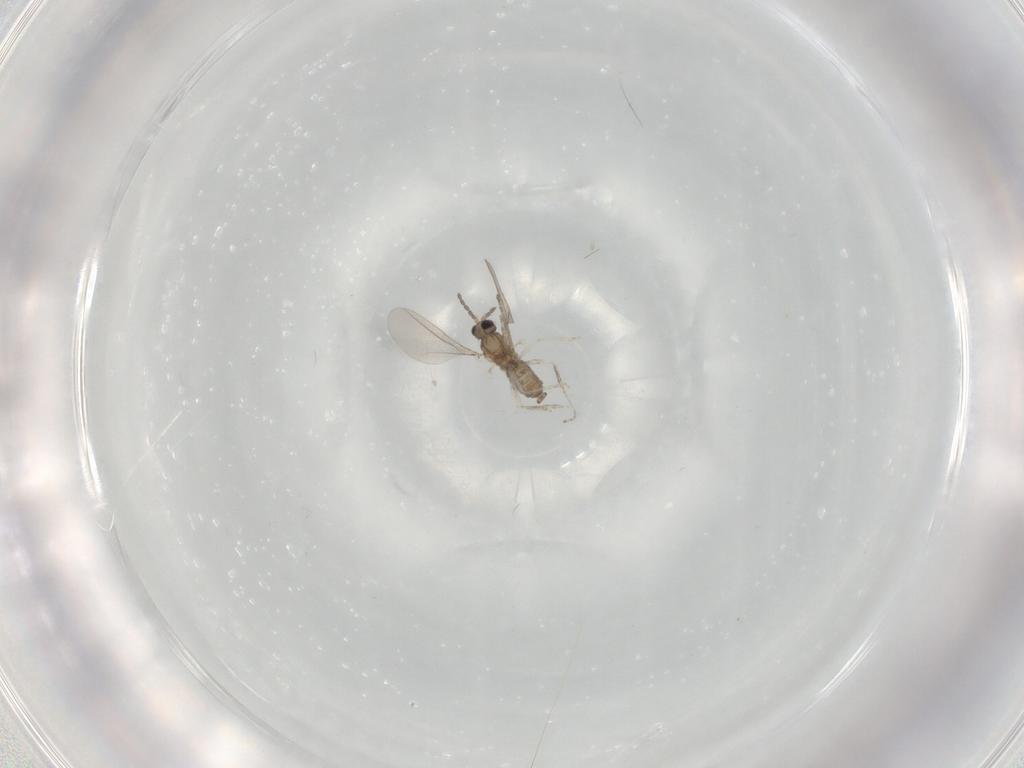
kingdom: Animalia
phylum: Arthropoda
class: Insecta
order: Diptera
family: Cecidomyiidae
